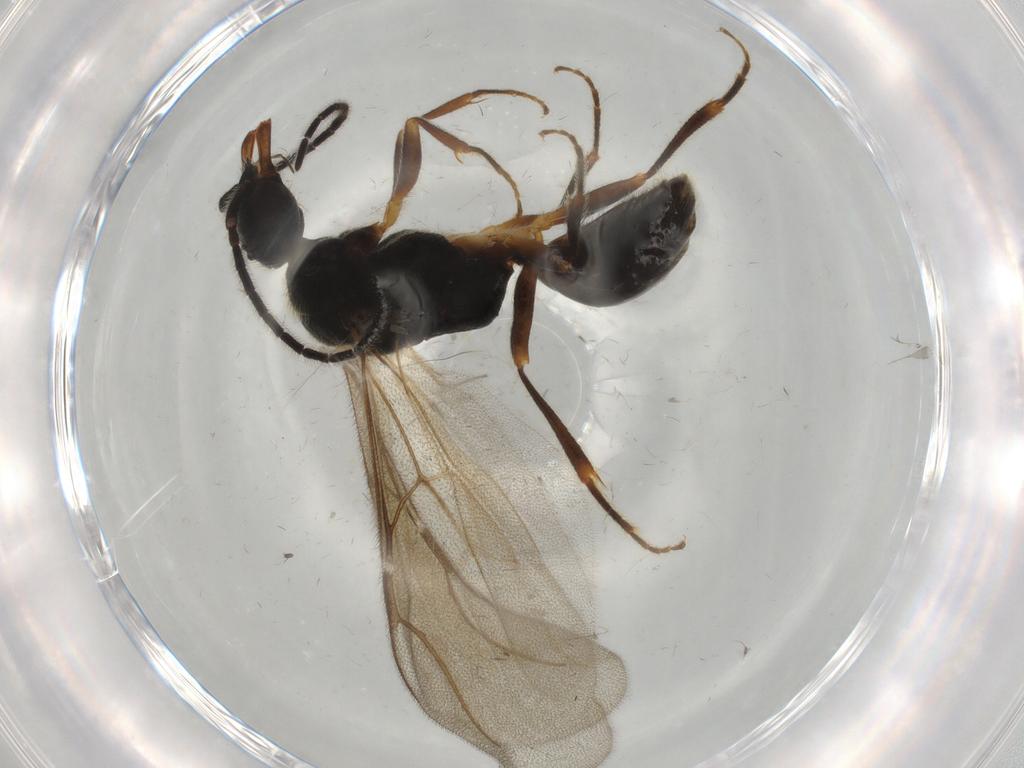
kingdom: Animalia
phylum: Arthropoda
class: Insecta
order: Hymenoptera
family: Bethylidae
